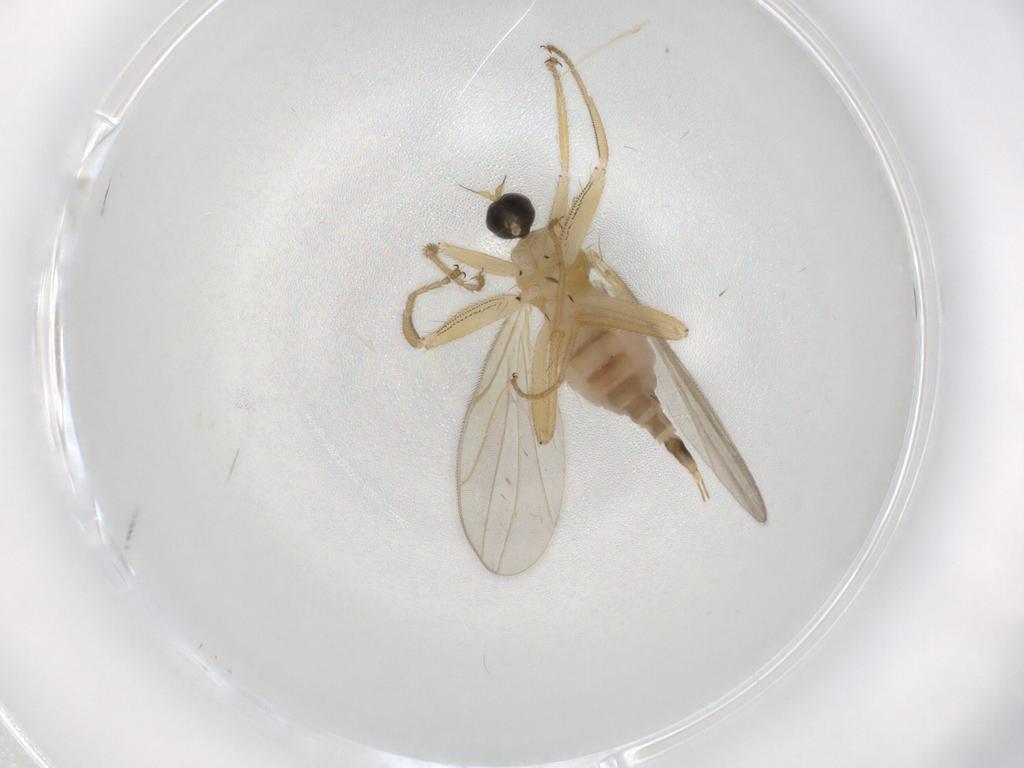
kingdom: Animalia
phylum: Arthropoda
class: Insecta
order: Diptera
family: Hybotidae
